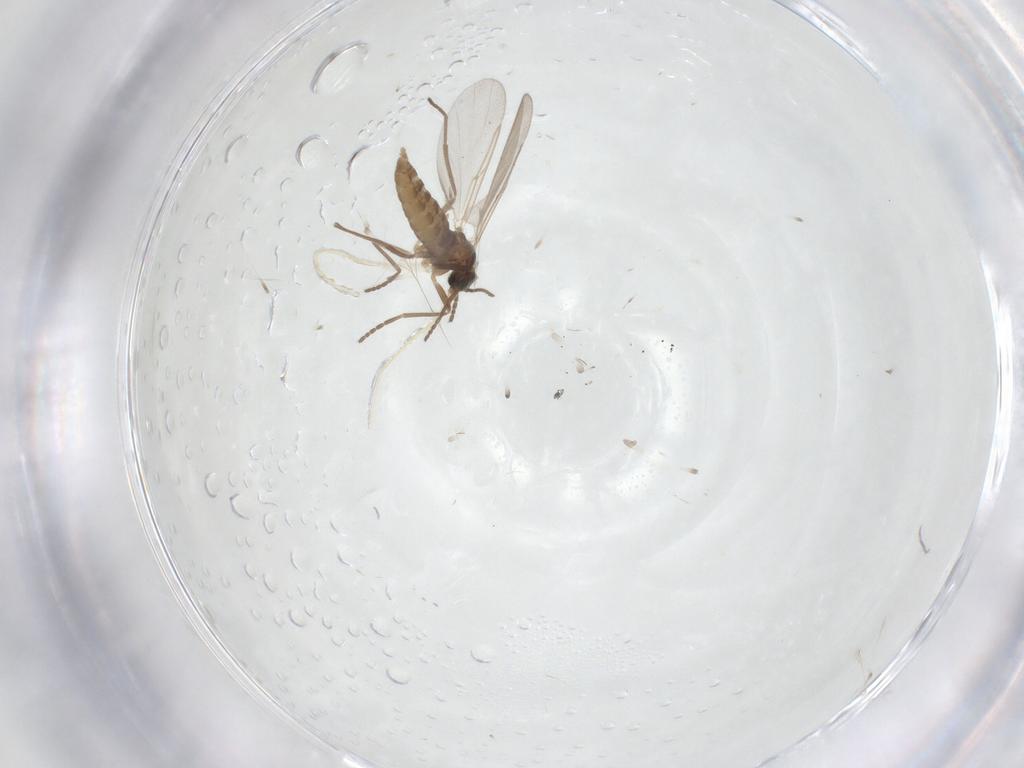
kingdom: Animalia
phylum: Arthropoda
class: Insecta
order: Diptera
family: Cecidomyiidae
